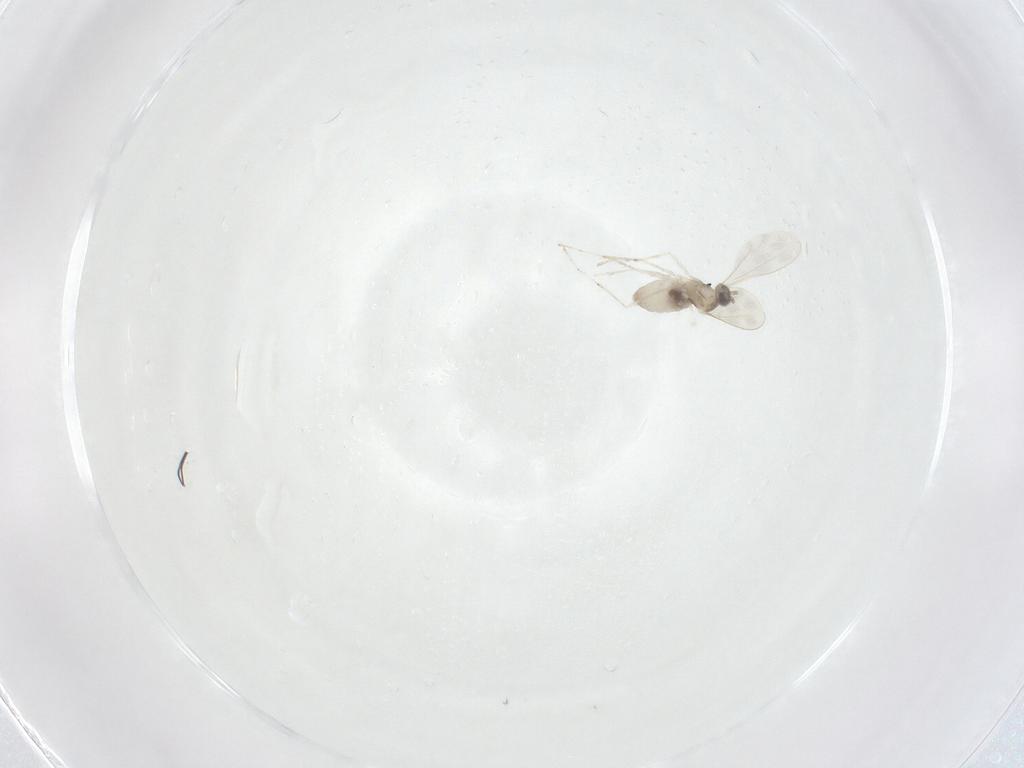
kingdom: Animalia
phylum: Arthropoda
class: Insecta
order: Diptera
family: Cecidomyiidae
